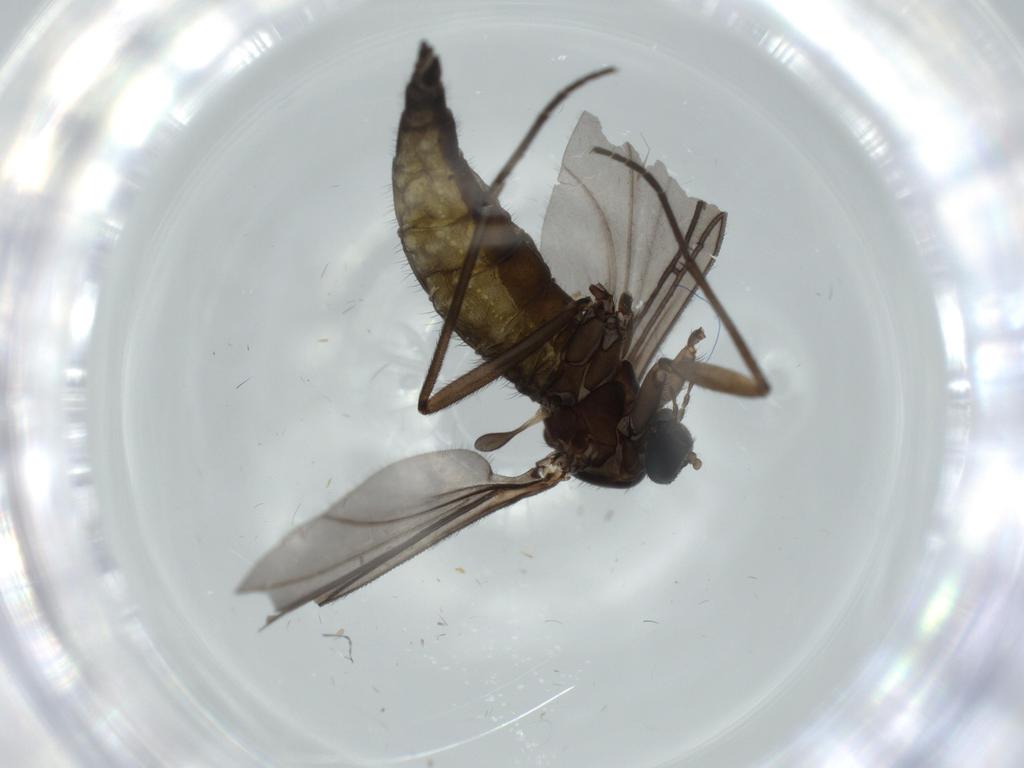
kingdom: Animalia
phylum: Arthropoda
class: Insecta
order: Diptera
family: Sciaridae
